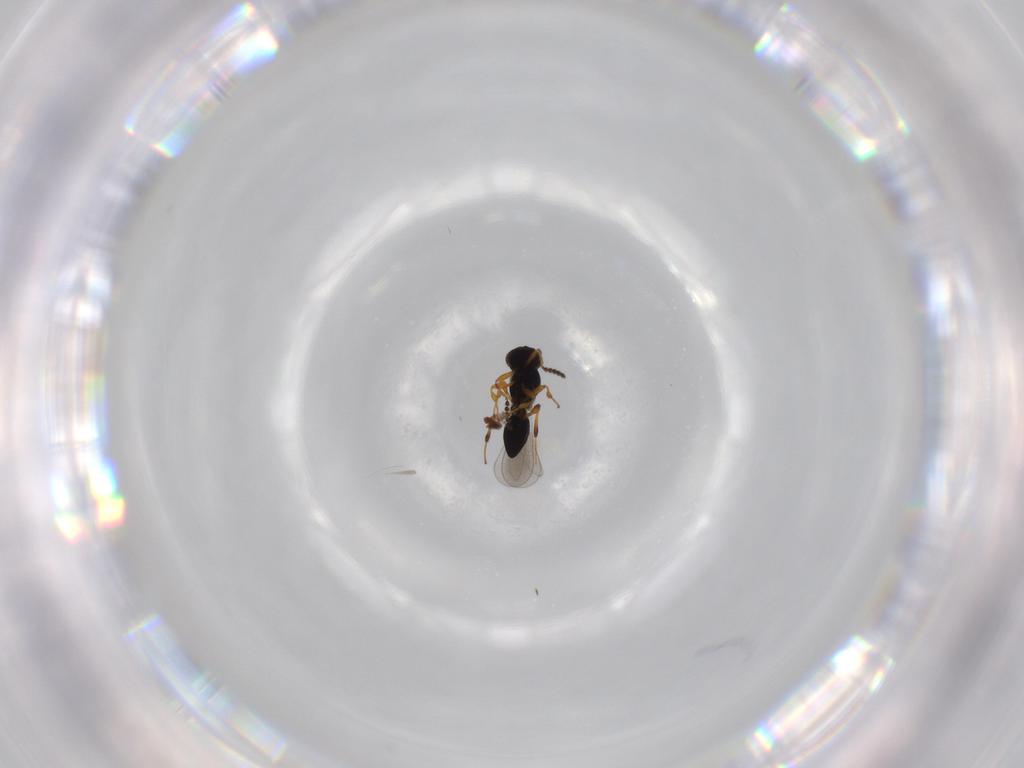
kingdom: Animalia
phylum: Arthropoda
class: Insecta
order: Hymenoptera
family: Platygastridae
